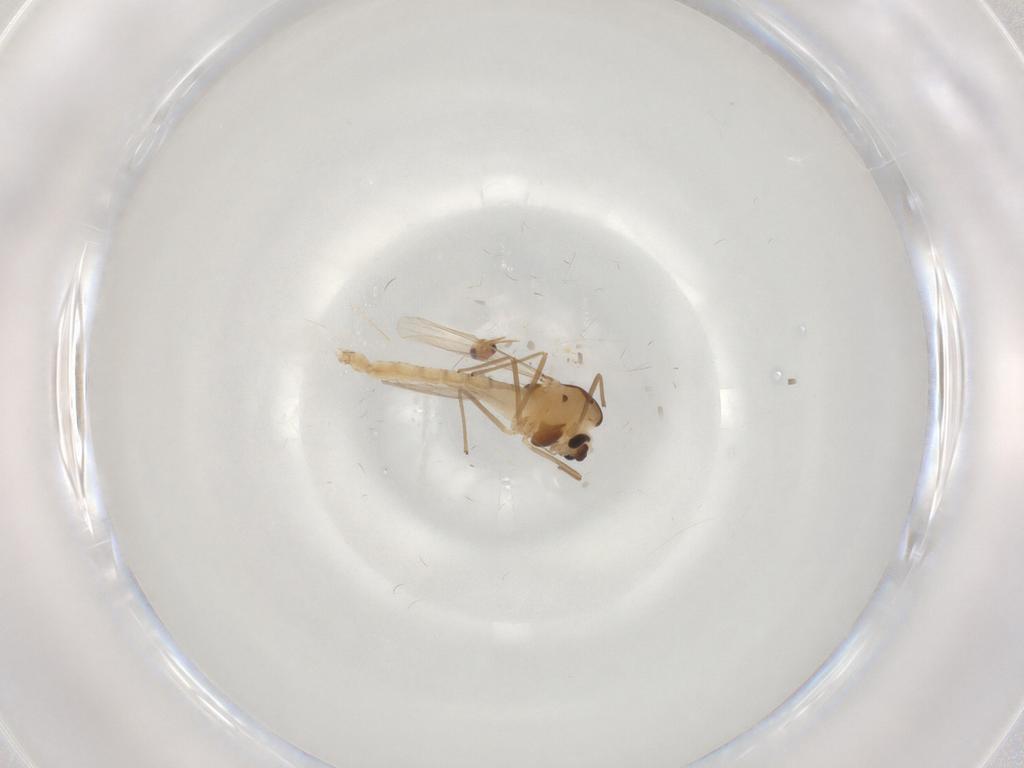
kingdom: Animalia
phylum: Arthropoda
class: Insecta
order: Diptera
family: Chironomidae
